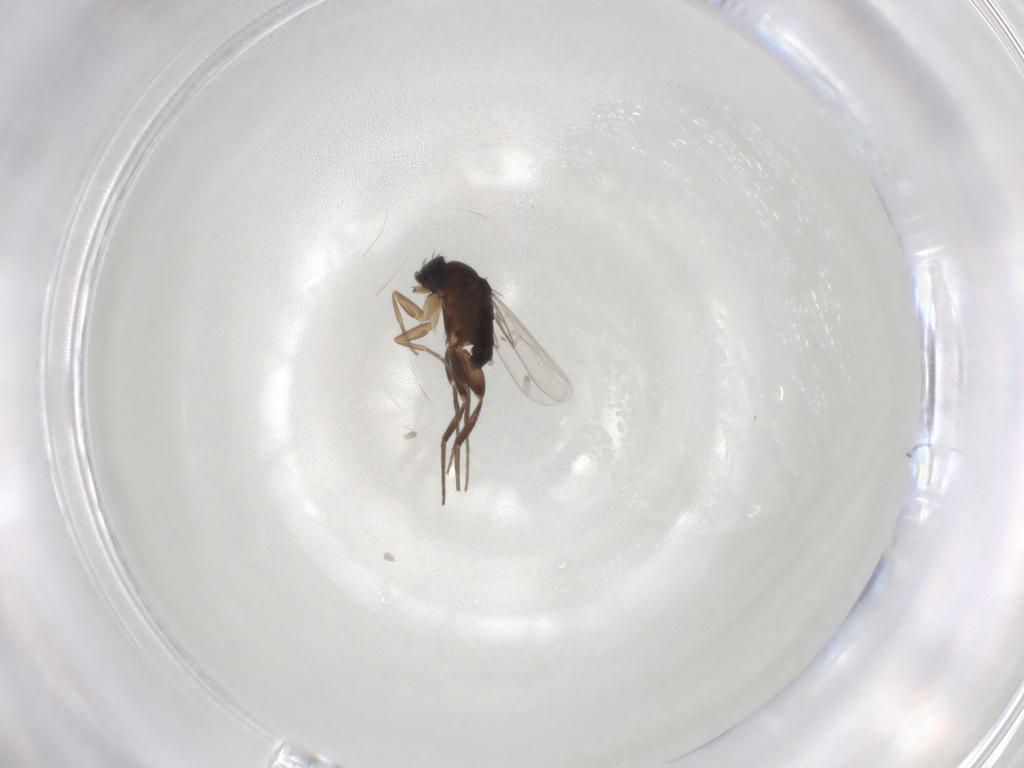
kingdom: Animalia
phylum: Arthropoda
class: Insecta
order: Diptera
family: Phoridae
